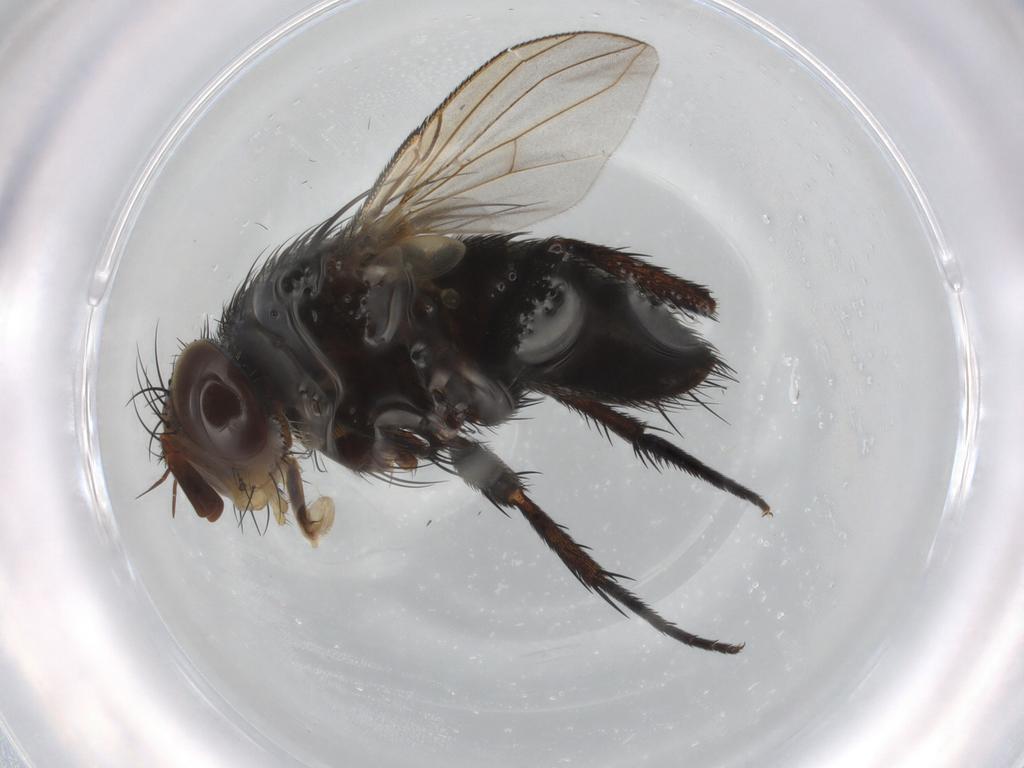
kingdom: Animalia
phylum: Arthropoda
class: Insecta
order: Diptera
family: Tachinidae
